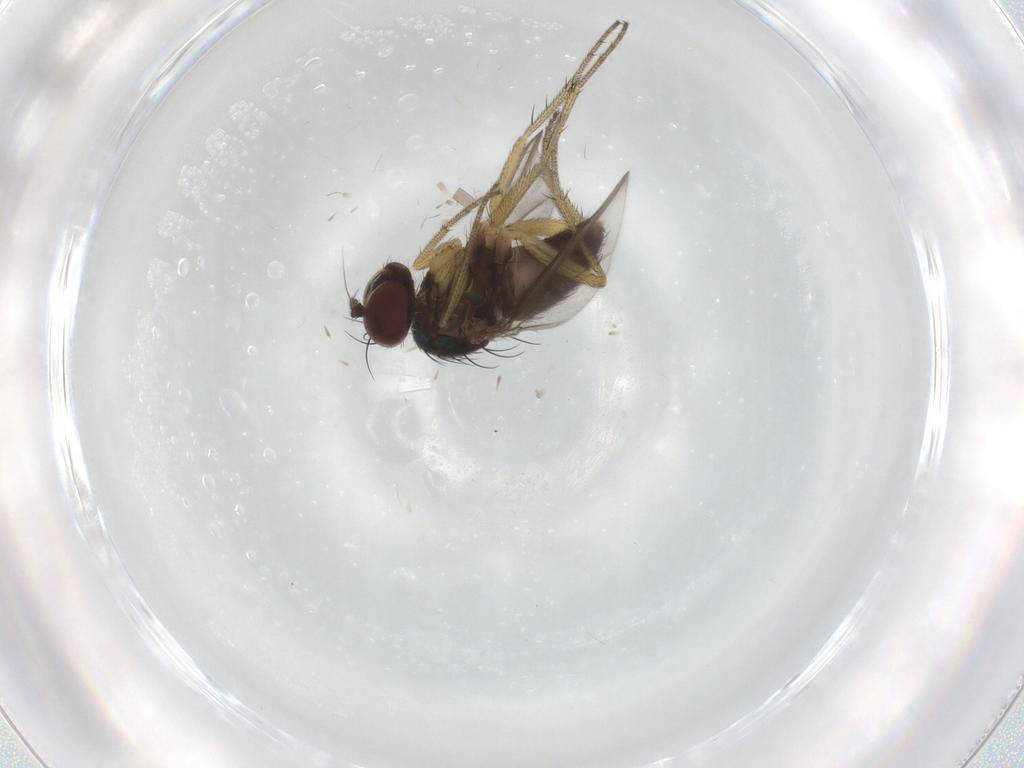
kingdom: Animalia
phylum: Arthropoda
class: Insecta
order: Diptera
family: Dolichopodidae
